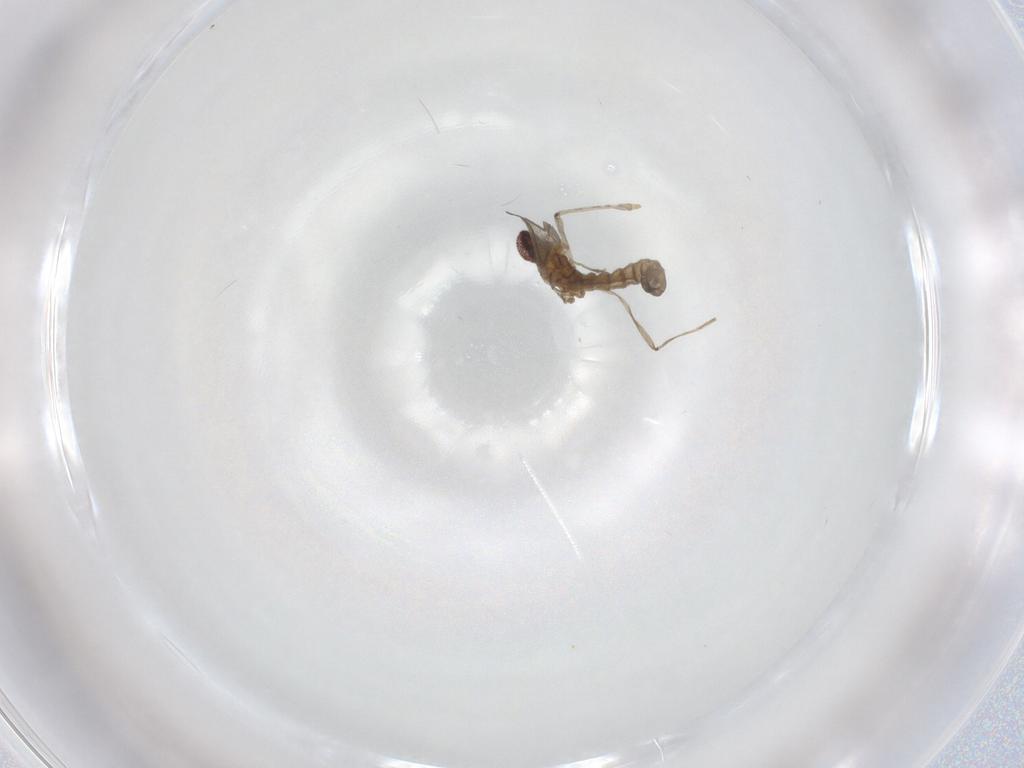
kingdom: Animalia
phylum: Arthropoda
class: Insecta
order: Diptera
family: Cecidomyiidae
